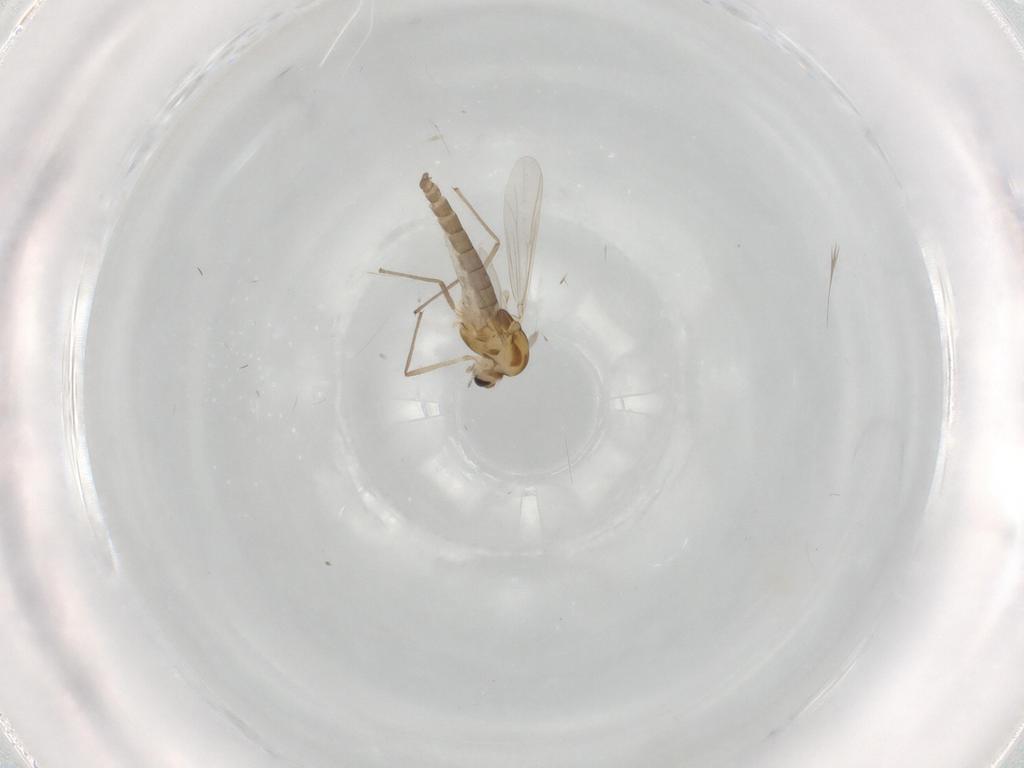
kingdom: Animalia
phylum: Arthropoda
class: Insecta
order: Diptera
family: Chironomidae
